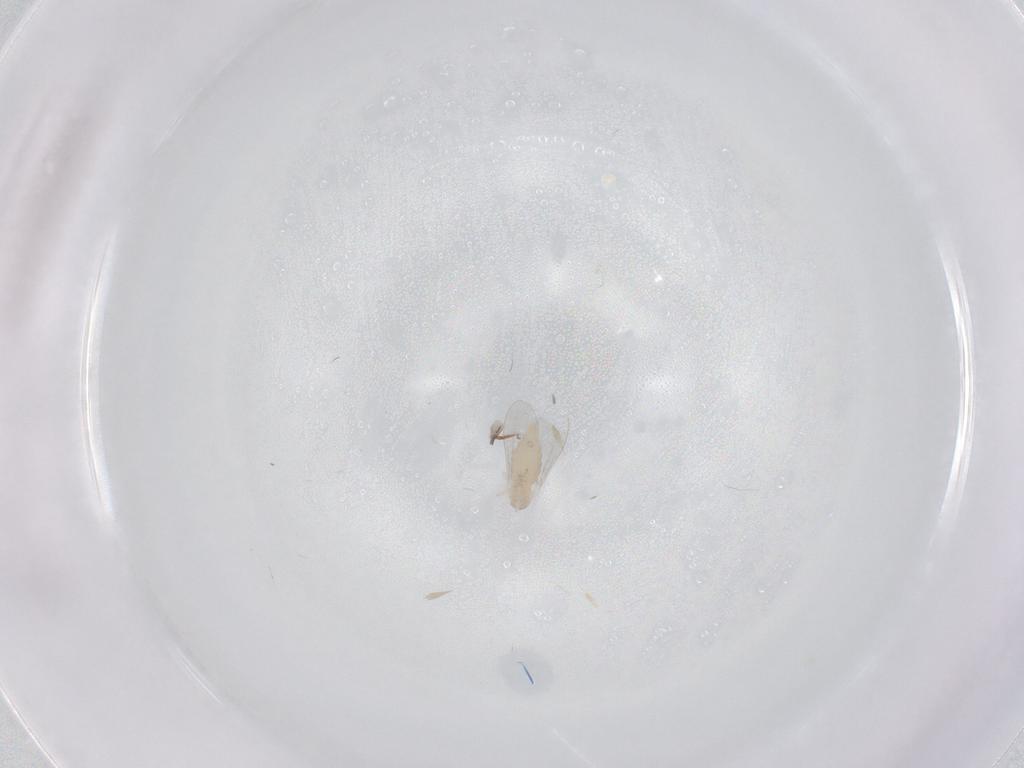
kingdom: Animalia
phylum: Arthropoda
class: Insecta
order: Diptera
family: Cecidomyiidae
